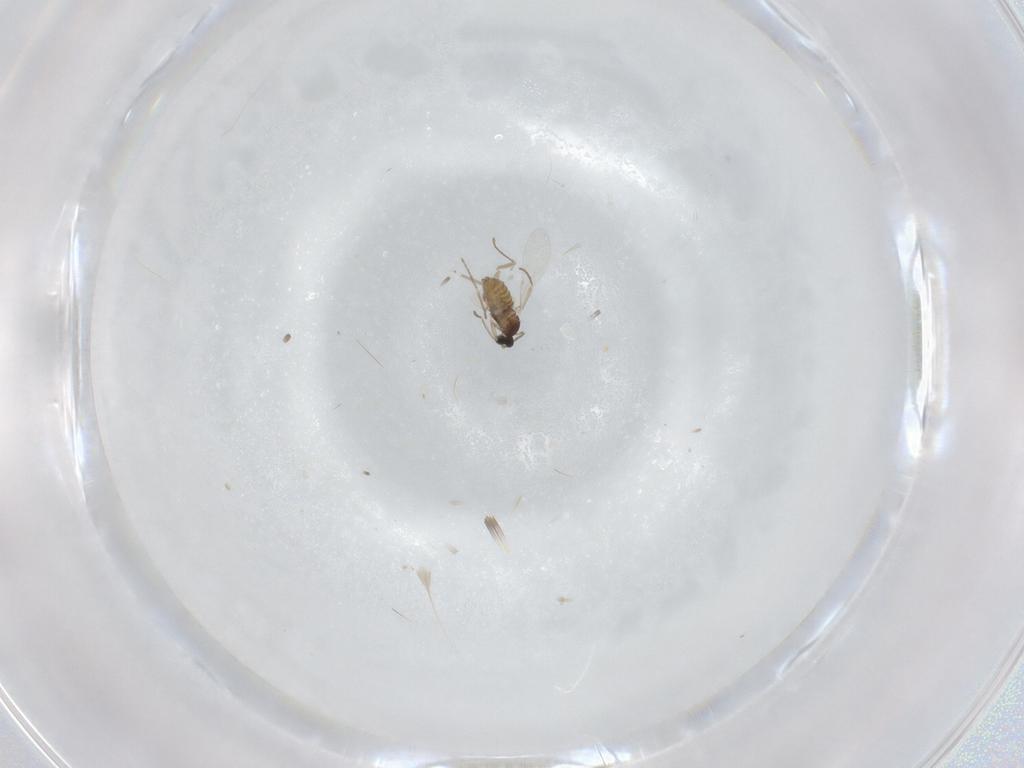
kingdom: Animalia
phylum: Arthropoda
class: Insecta
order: Diptera
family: Cecidomyiidae
